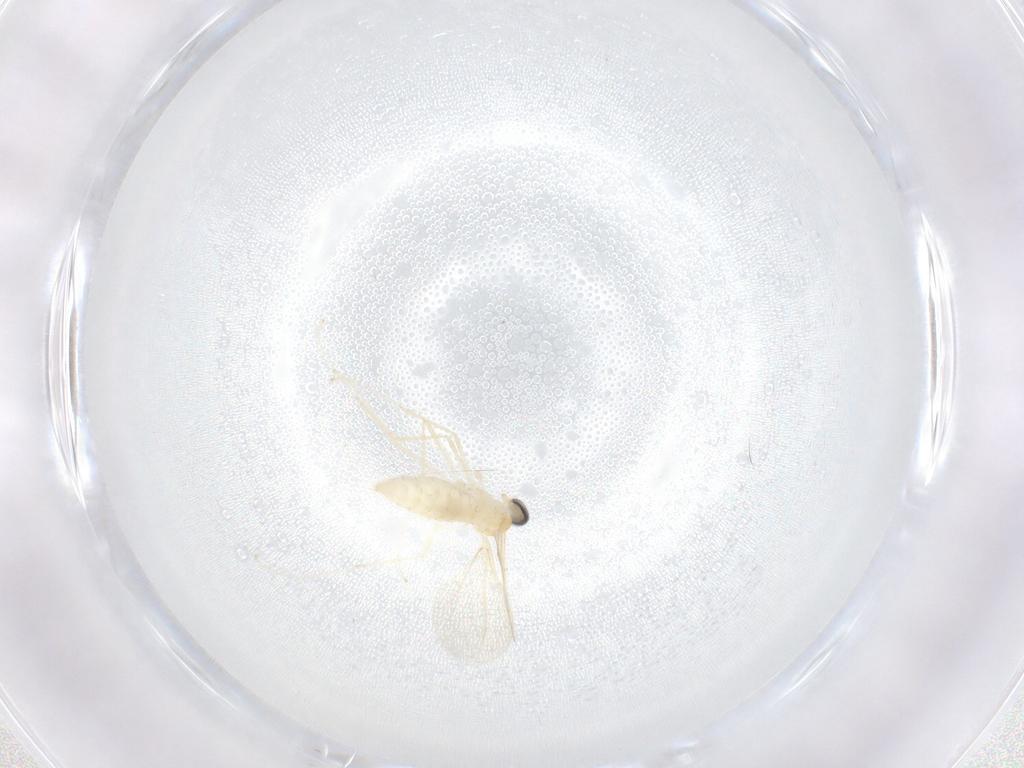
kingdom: Animalia
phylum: Arthropoda
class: Insecta
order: Diptera
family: Cecidomyiidae
